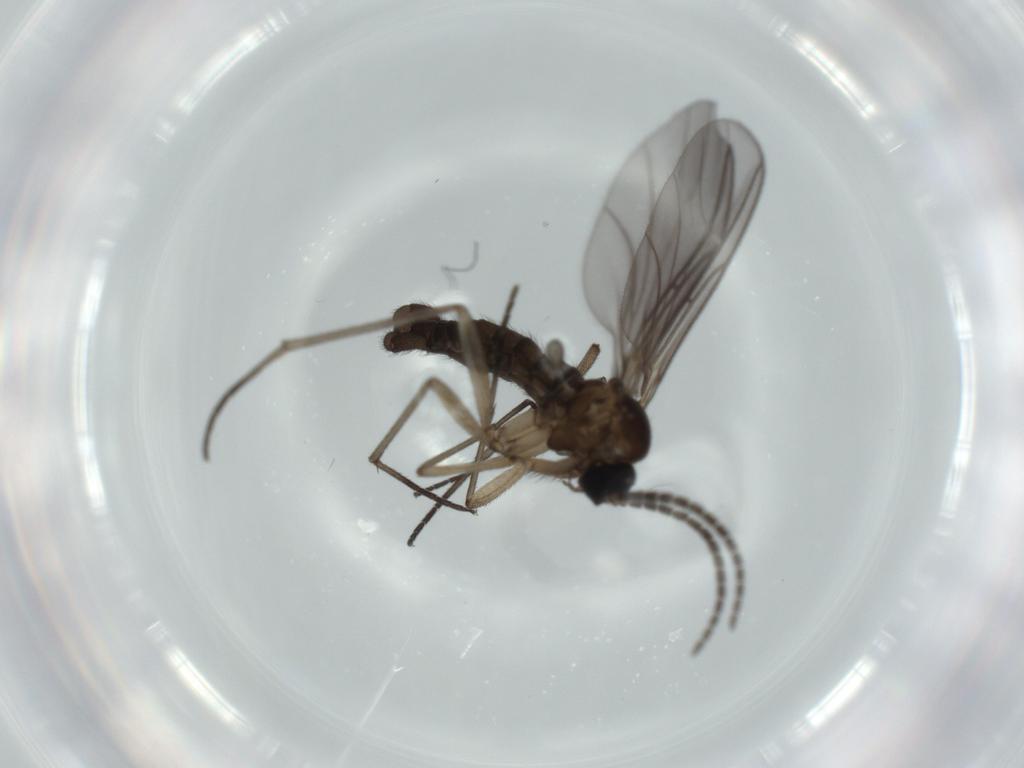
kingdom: Animalia
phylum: Arthropoda
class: Insecta
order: Diptera
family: Sciaridae
